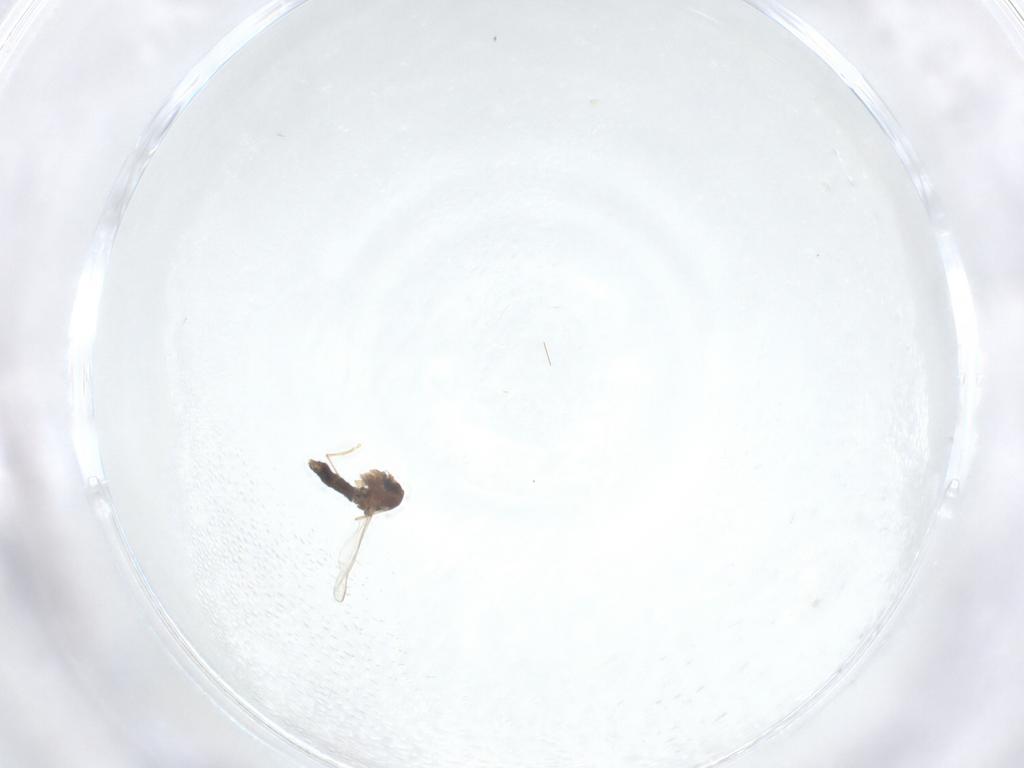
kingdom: Animalia
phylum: Arthropoda
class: Insecta
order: Diptera
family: Chironomidae
